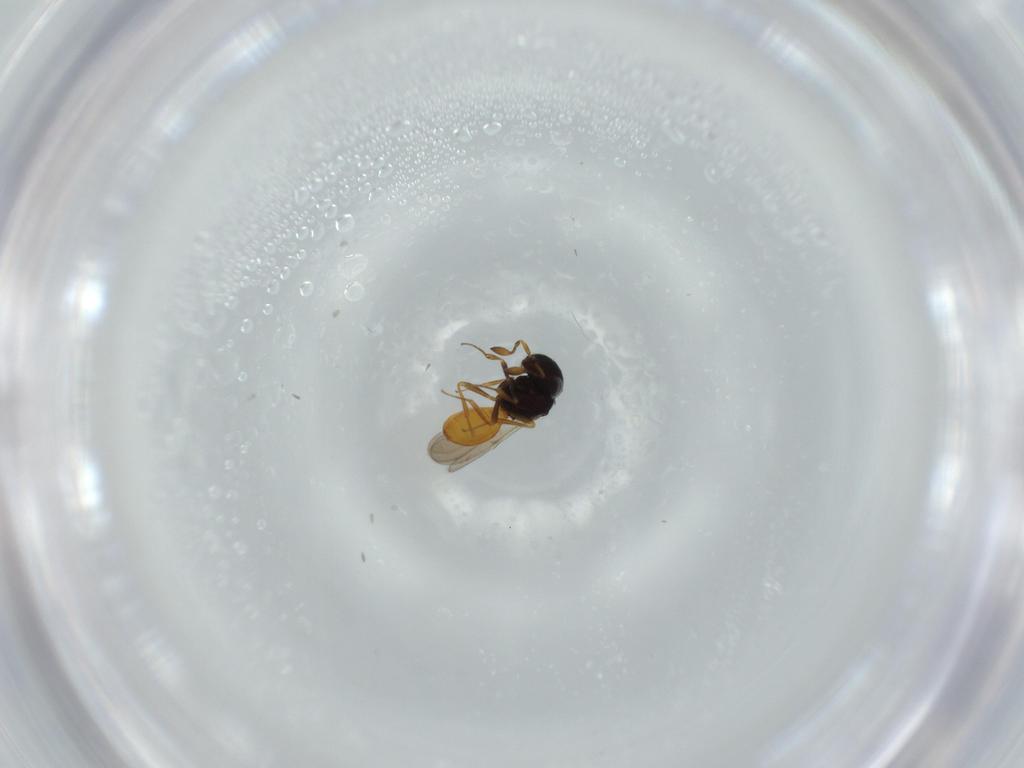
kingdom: Animalia
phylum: Arthropoda
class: Insecta
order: Hymenoptera
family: Scelionidae
